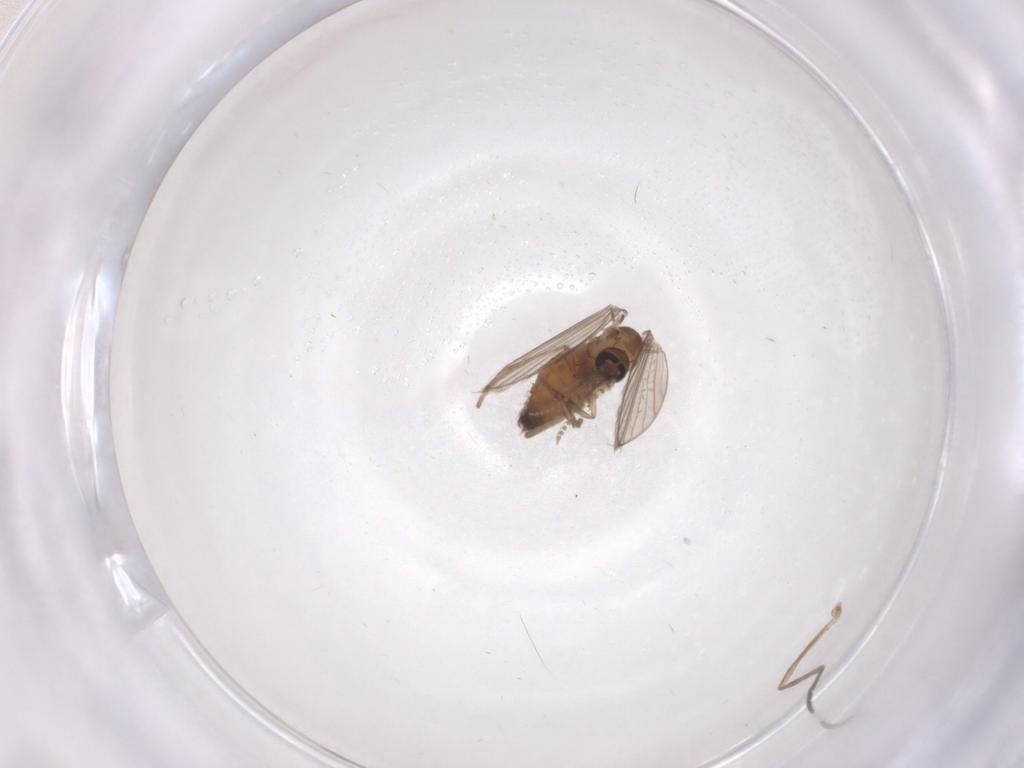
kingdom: Animalia
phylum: Arthropoda
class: Insecta
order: Diptera
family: Psychodidae
